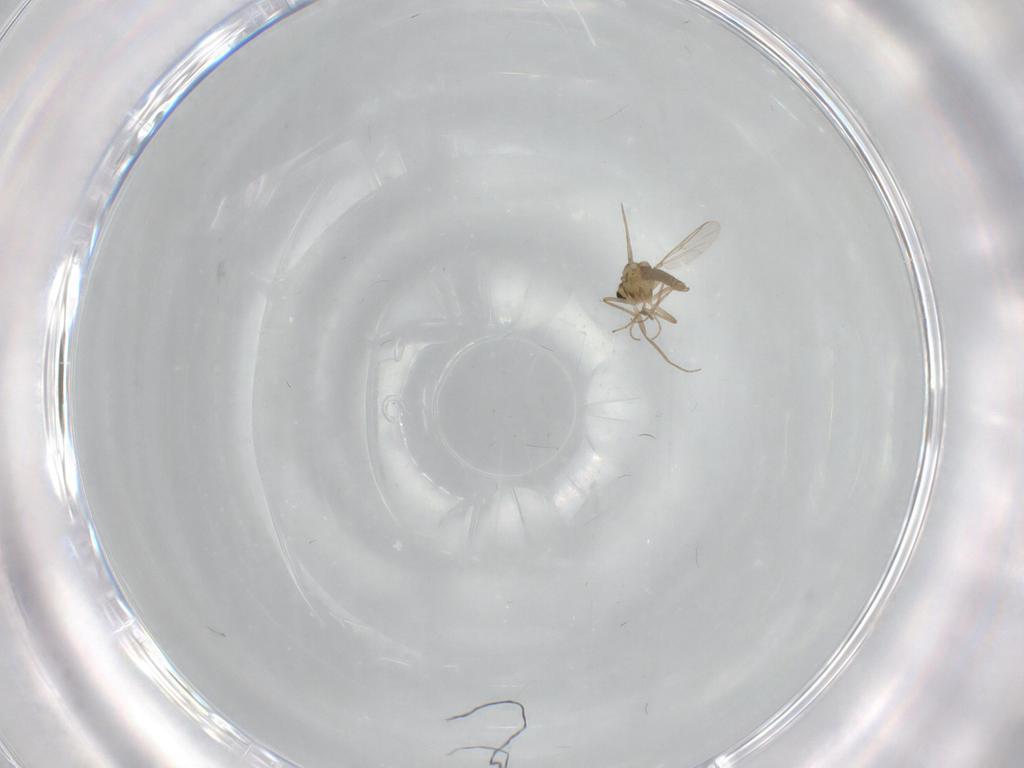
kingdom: Animalia
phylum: Arthropoda
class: Insecta
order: Diptera
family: Chironomidae
